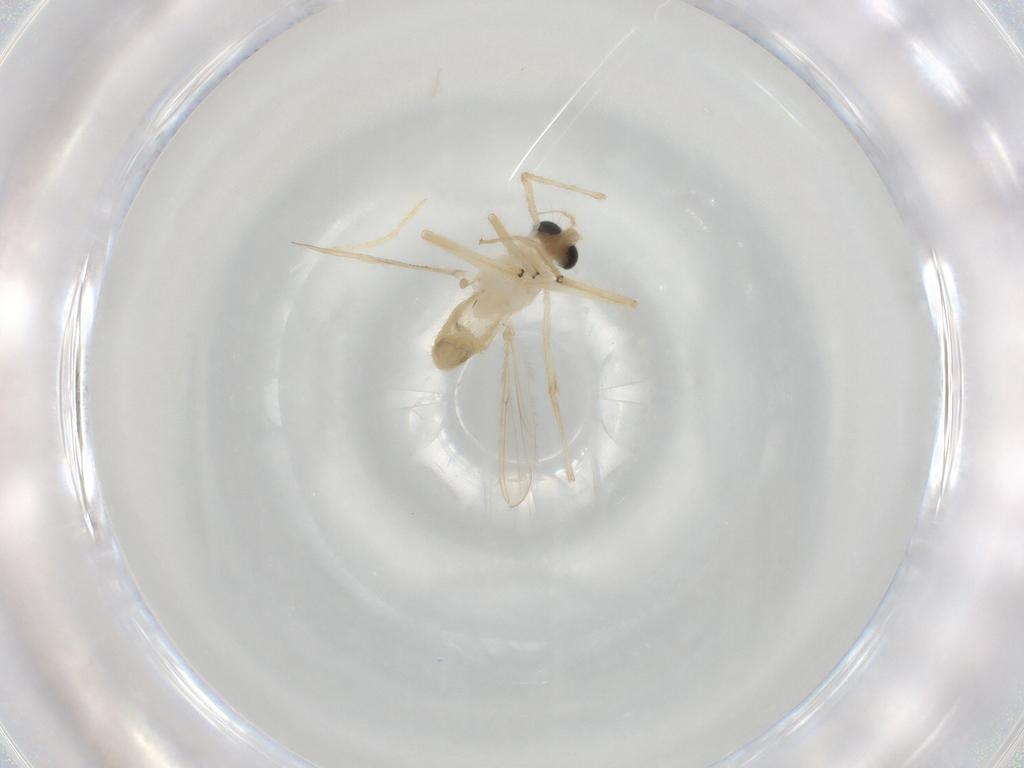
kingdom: Animalia
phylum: Arthropoda
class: Insecta
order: Diptera
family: Chironomidae
